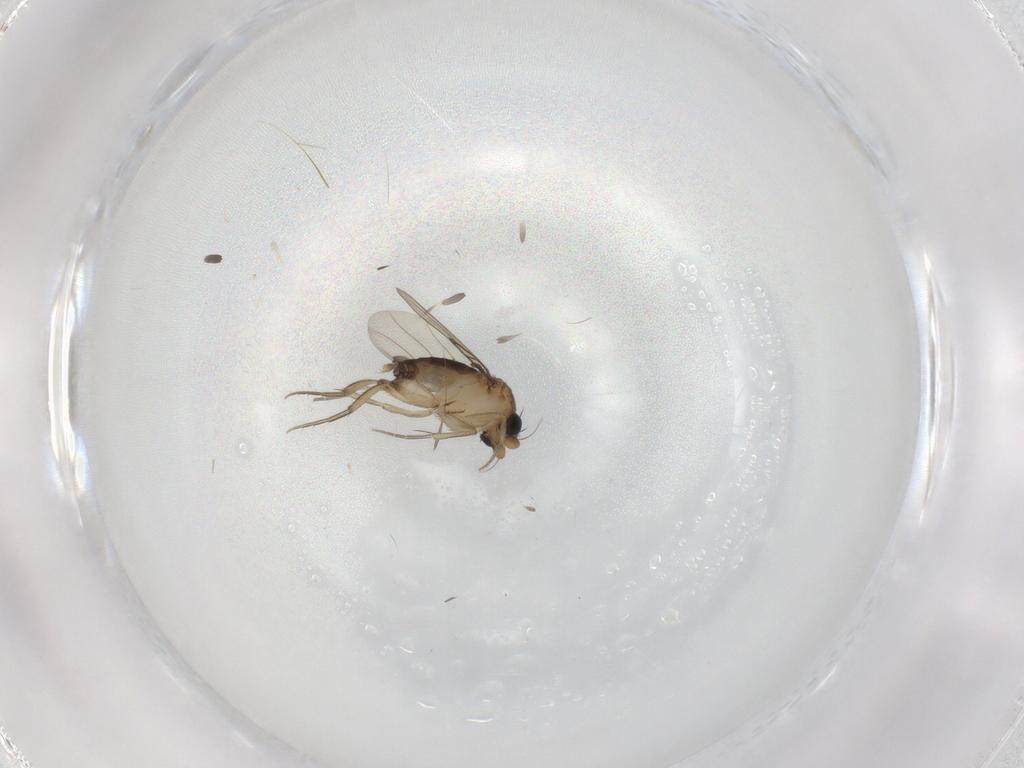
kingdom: Animalia
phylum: Arthropoda
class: Insecta
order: Diptera
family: Phoridae
